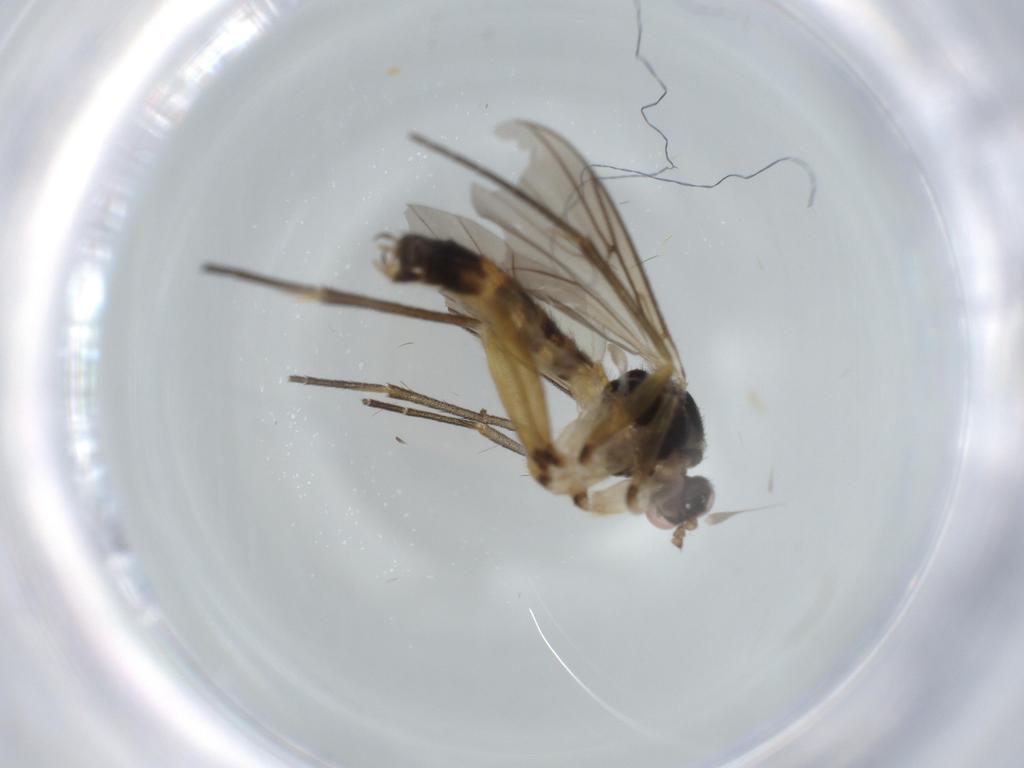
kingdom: Animalia
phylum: Arthropoda
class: Insecta
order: Diptera
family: Mycetophilidae
